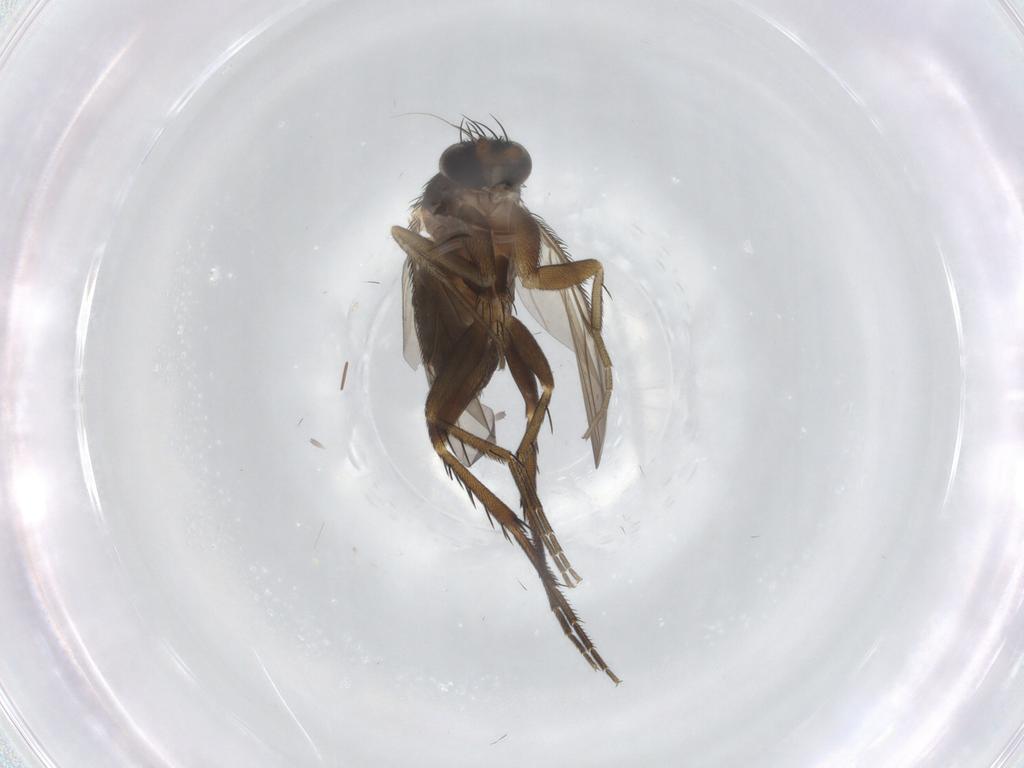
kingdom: Animalia
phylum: Arthropoda
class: Insecta
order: Diptera
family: Phoridae
